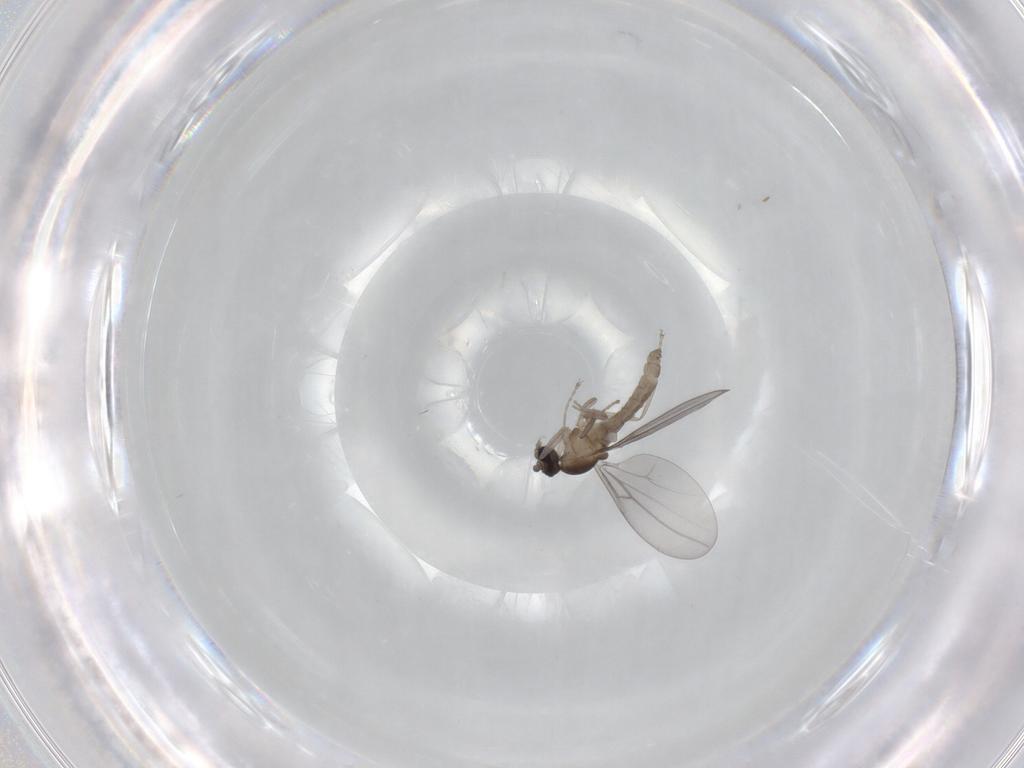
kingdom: Animalia
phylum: Arthropoda
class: Insecta
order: Diptera
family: Cecidomyiidae
